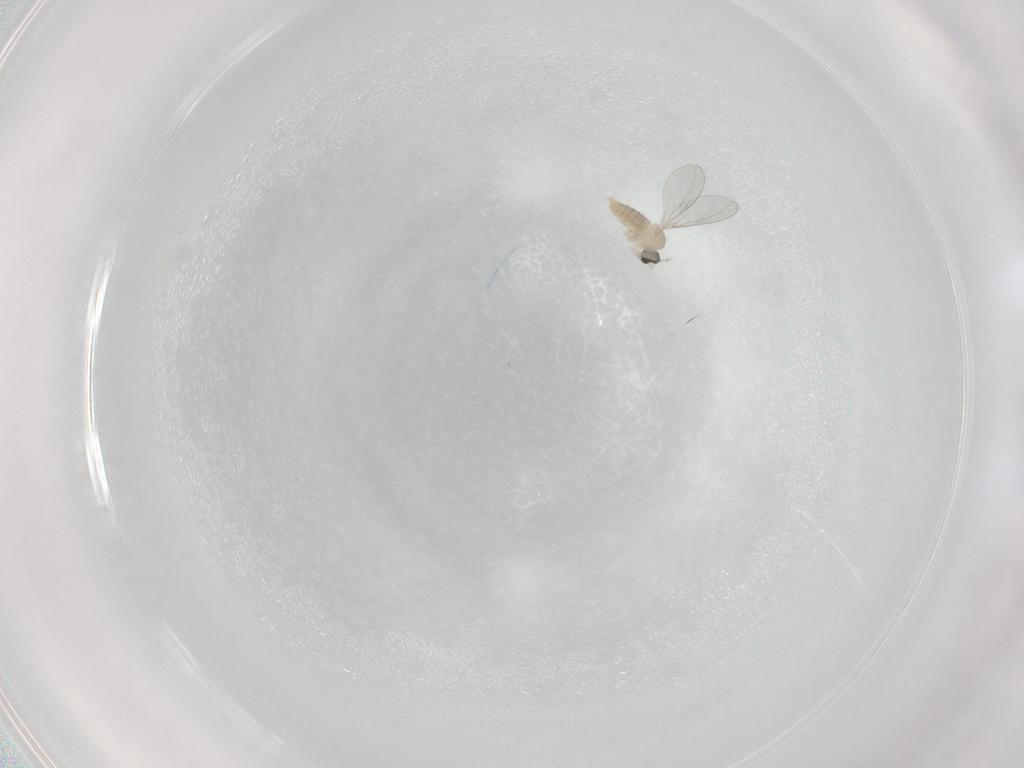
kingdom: Animalia
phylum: Arthropoda
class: Insecta
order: Diptera
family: Cecidomyiidae
